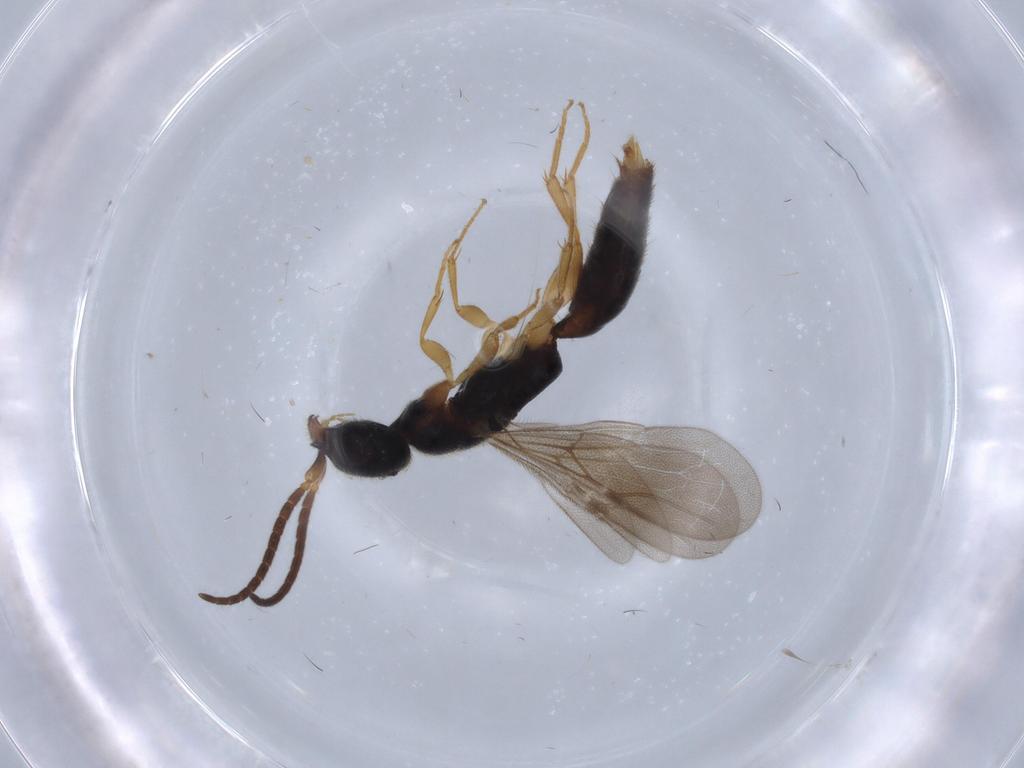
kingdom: Animalia
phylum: Arthropoda
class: Insecta
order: Hymenoptera
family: Bethylidae
